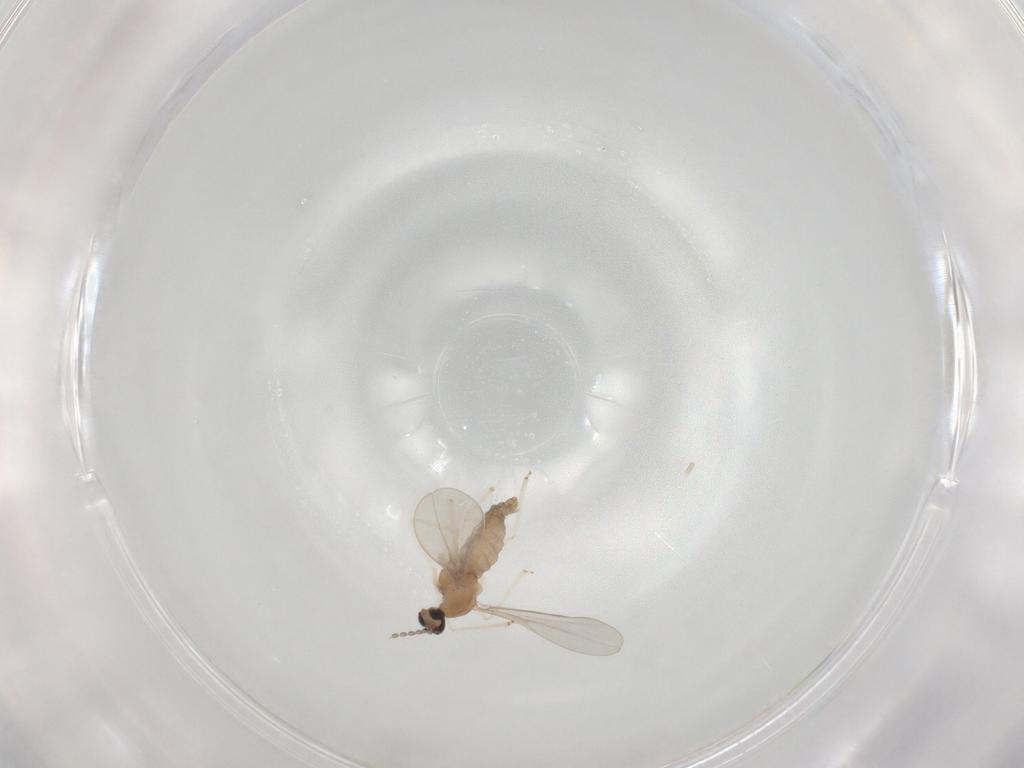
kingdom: Animalia
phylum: Arthropoda
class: Insecta
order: Diptera
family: Cecidomyiidae
